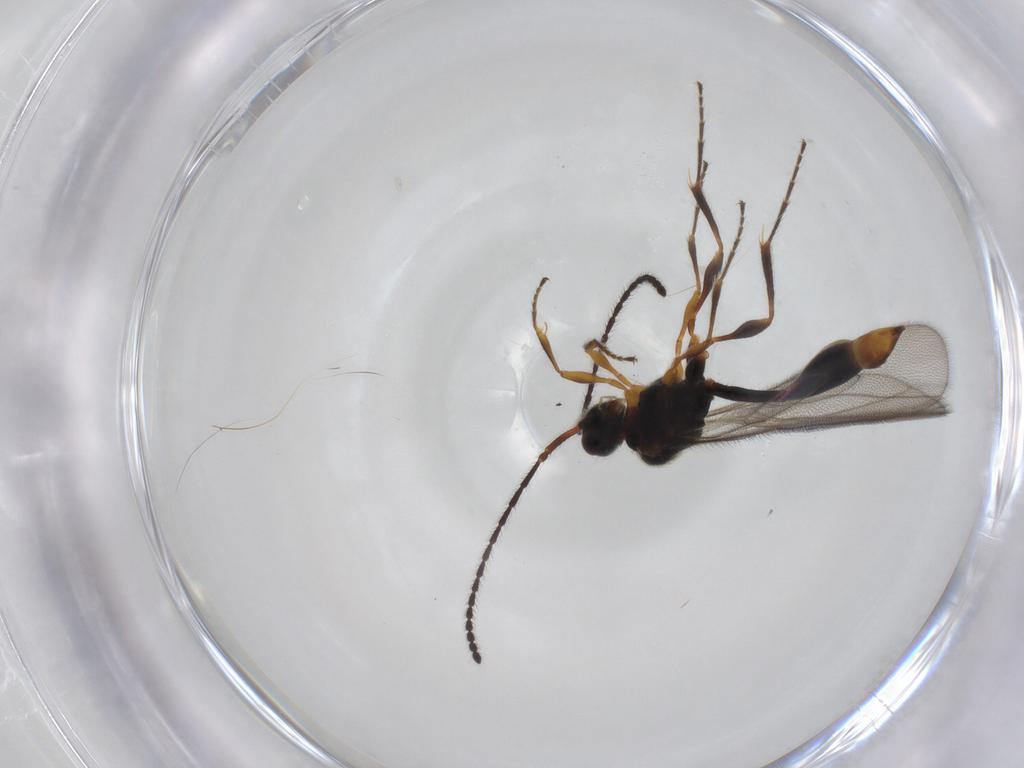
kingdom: Animalia
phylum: Arthropoda
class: Insecta
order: Hymenoptera
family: Diapriidae
